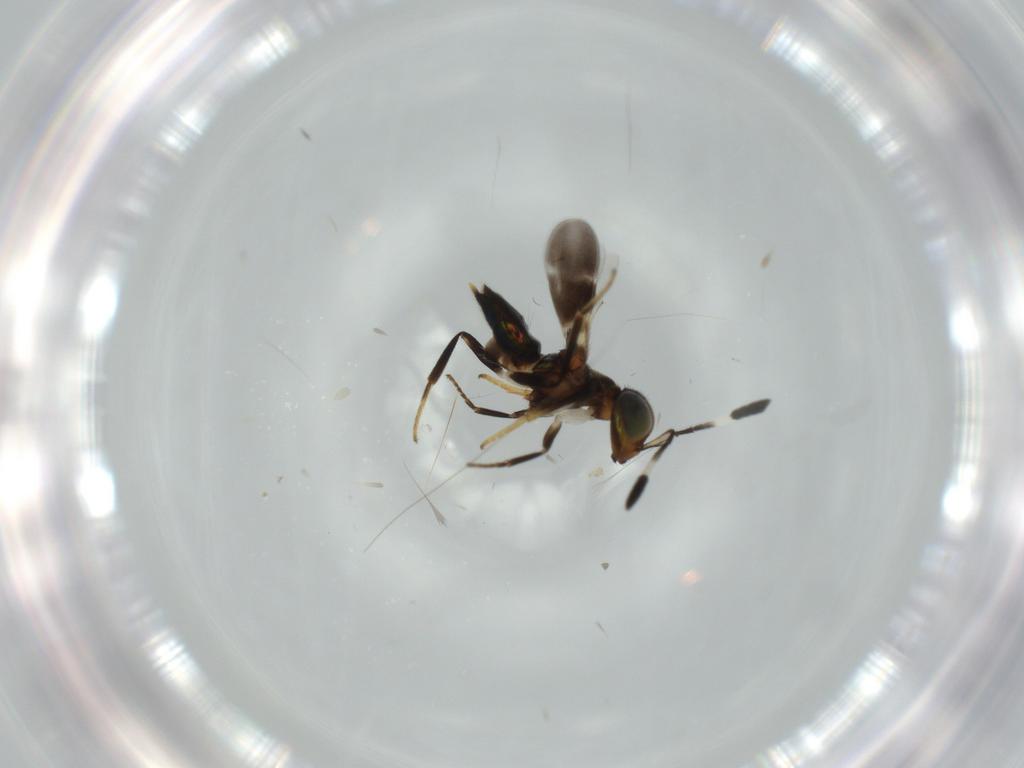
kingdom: Animalia
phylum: Arthropoda
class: Insecta
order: Hymenoptera
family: Encyrtidae
